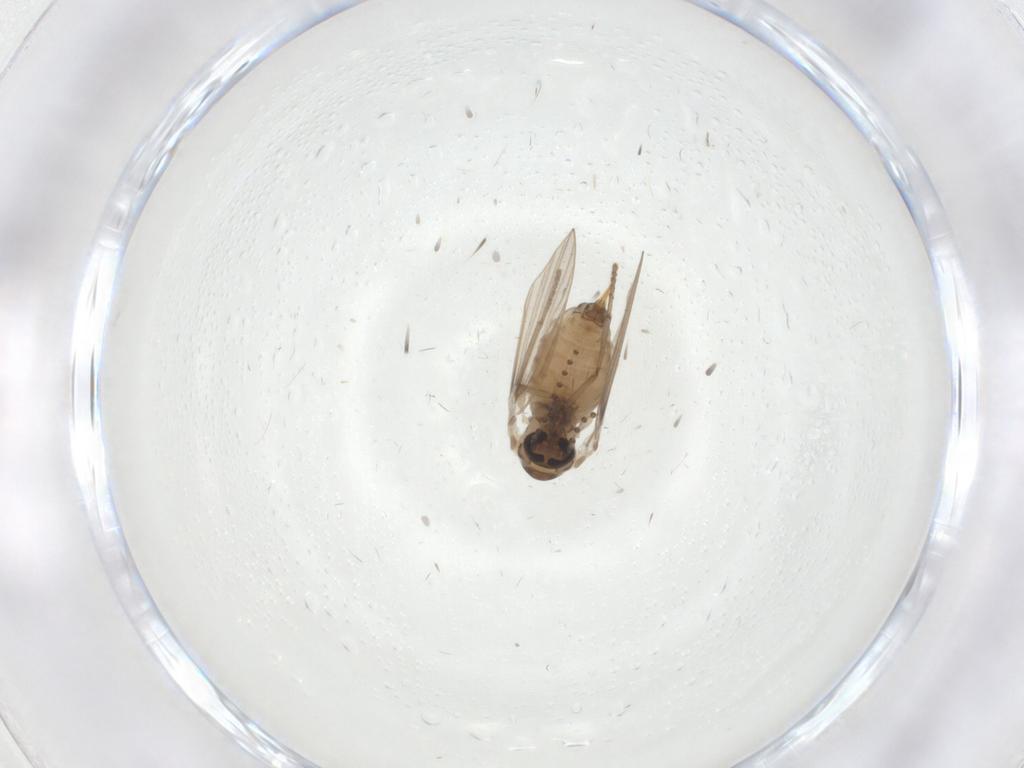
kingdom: Animalia
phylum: Arthropoda
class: Insecta
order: Diptera
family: Psychodidae
